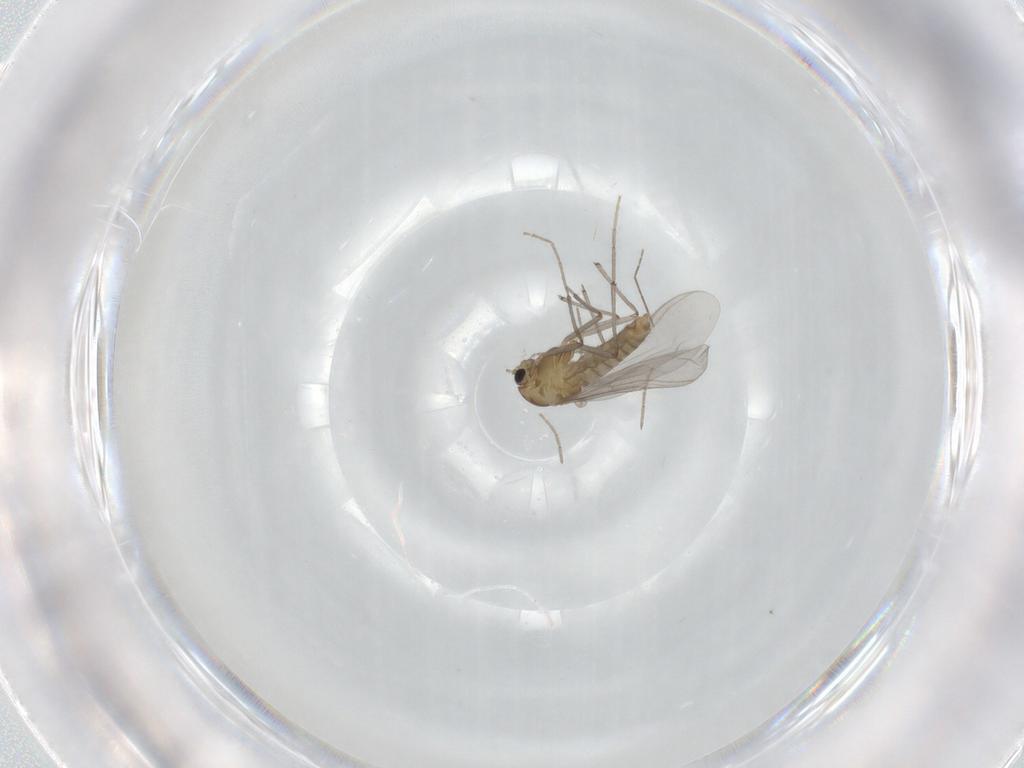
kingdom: Animalia
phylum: Arthropoda
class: Insecta
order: Diptera
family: Chironomidae
